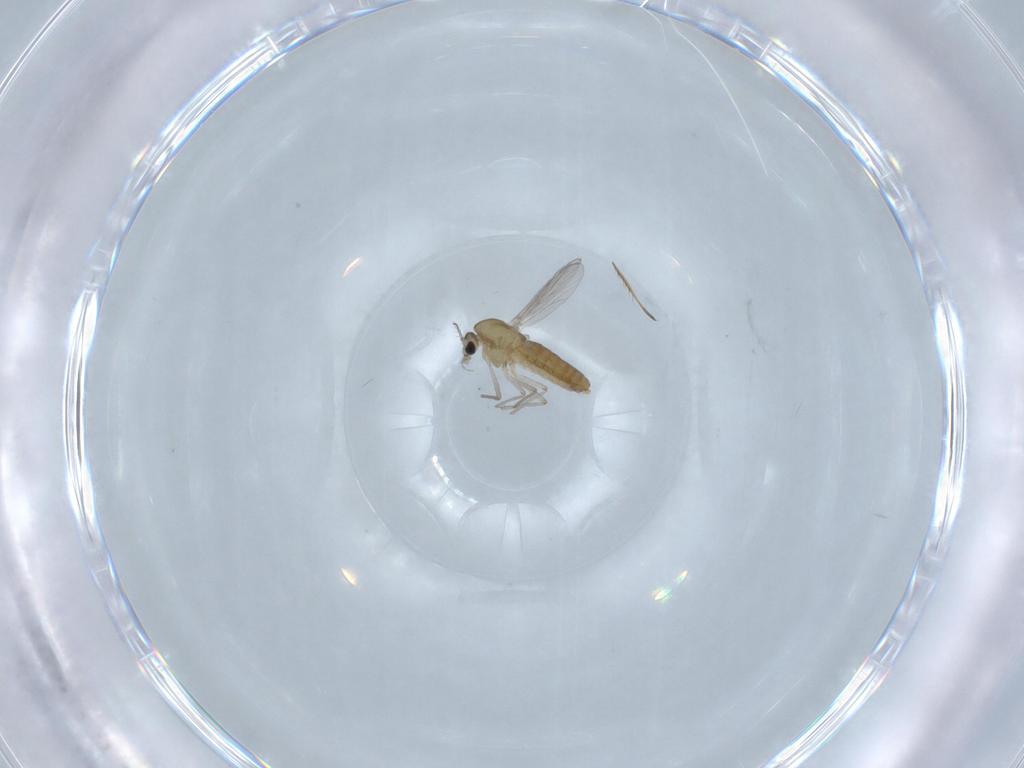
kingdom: Animalia
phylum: Arthropoda
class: Insecta
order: Diptera
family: Chironomidae
